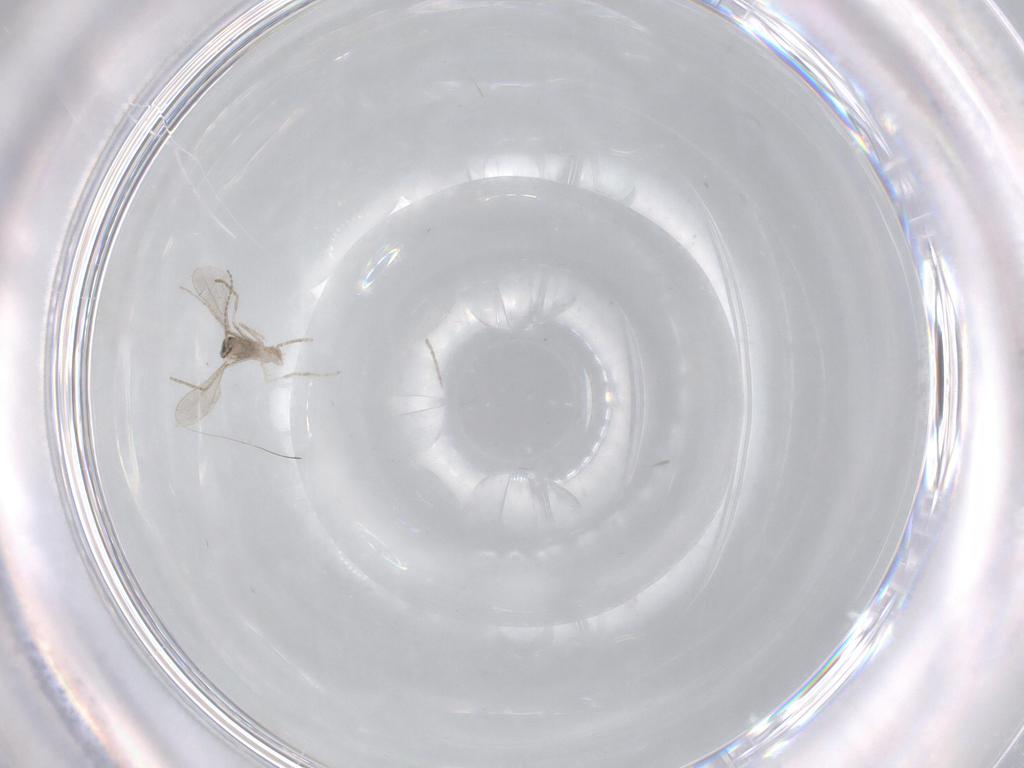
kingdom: Animalia
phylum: Arthropoda
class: Insecta
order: Diptera
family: Cecidomyiidae
